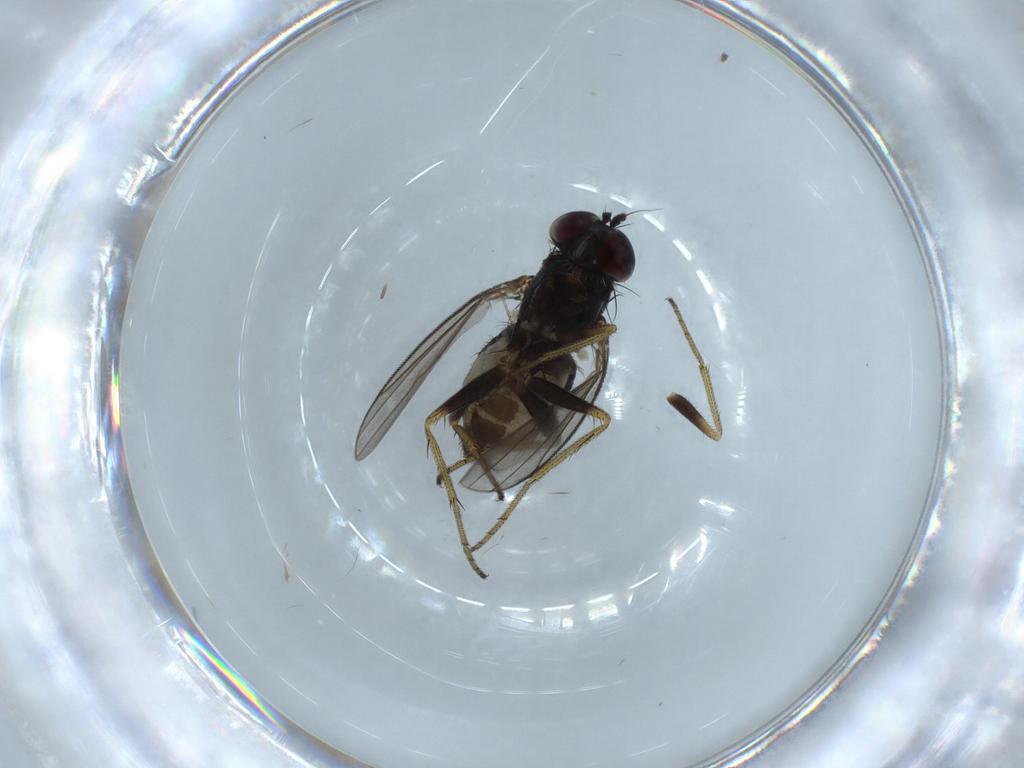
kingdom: Animalia
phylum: Arthropoda
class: Insecta
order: Diptera
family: Phoridae
